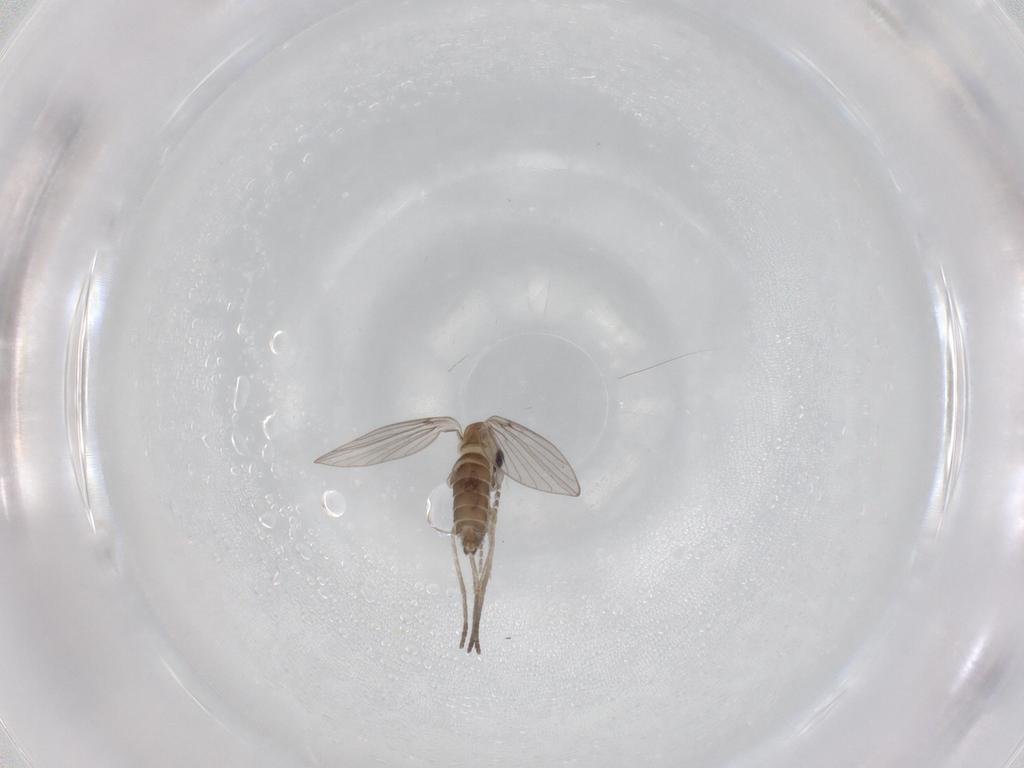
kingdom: Animalia
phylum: Arthropoda
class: Insecta
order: Diptera
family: Psychodidae
